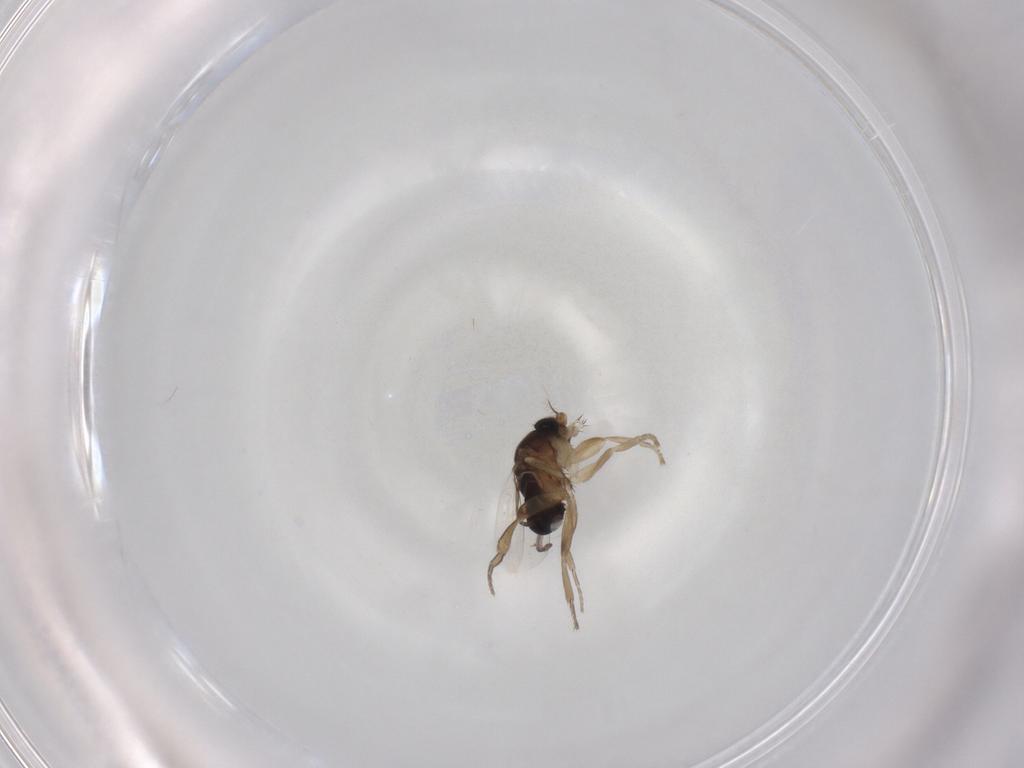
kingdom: Animalia
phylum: Arthropoda
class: Insecta
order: Diptera
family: Phoridae
